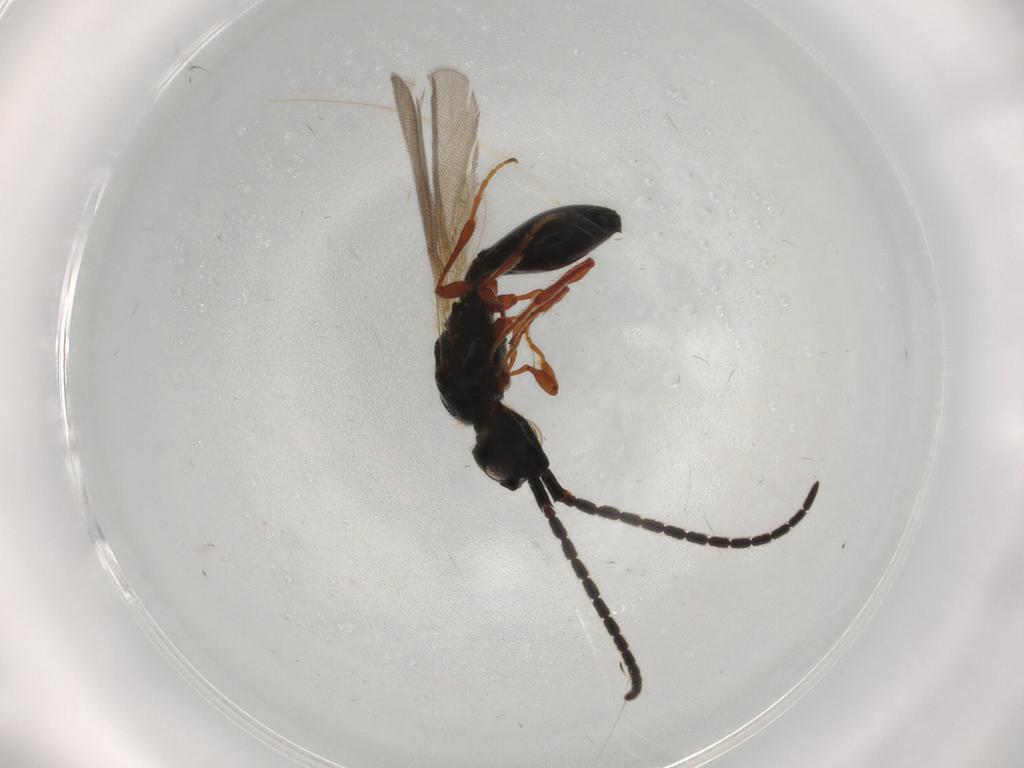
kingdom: Animalia
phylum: Arthropoda
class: Insecta
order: Hymenoptera
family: Diapriidae
